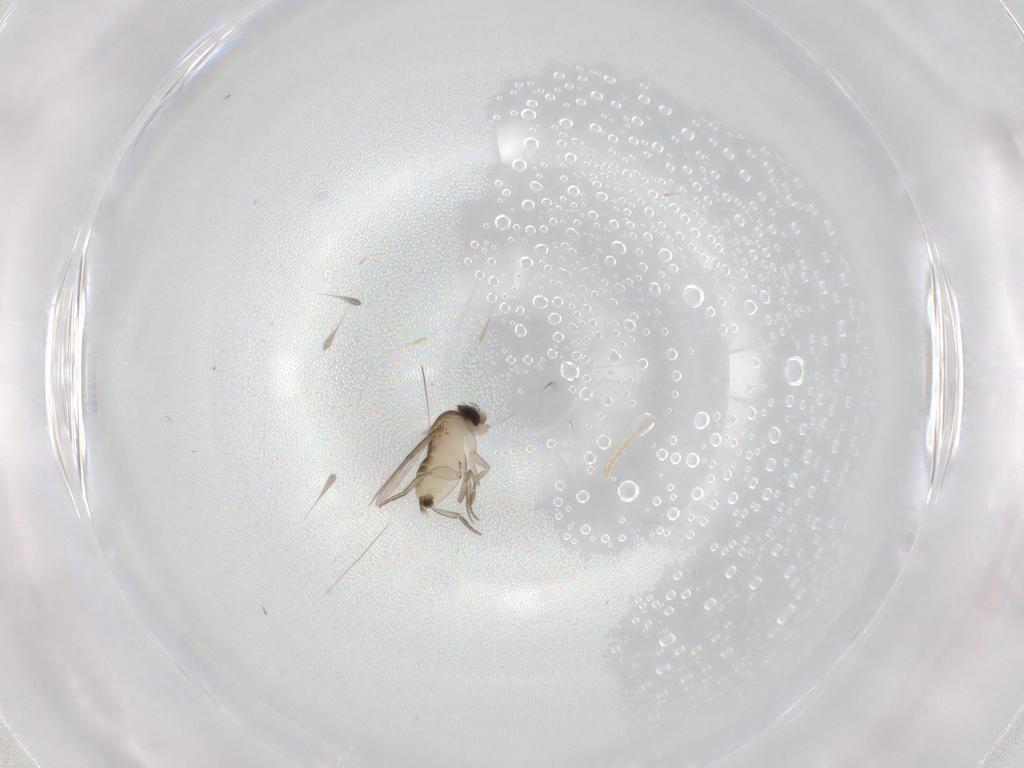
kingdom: Animalia
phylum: Arthropoda
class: Insecta
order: Diptera
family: Phoridae
